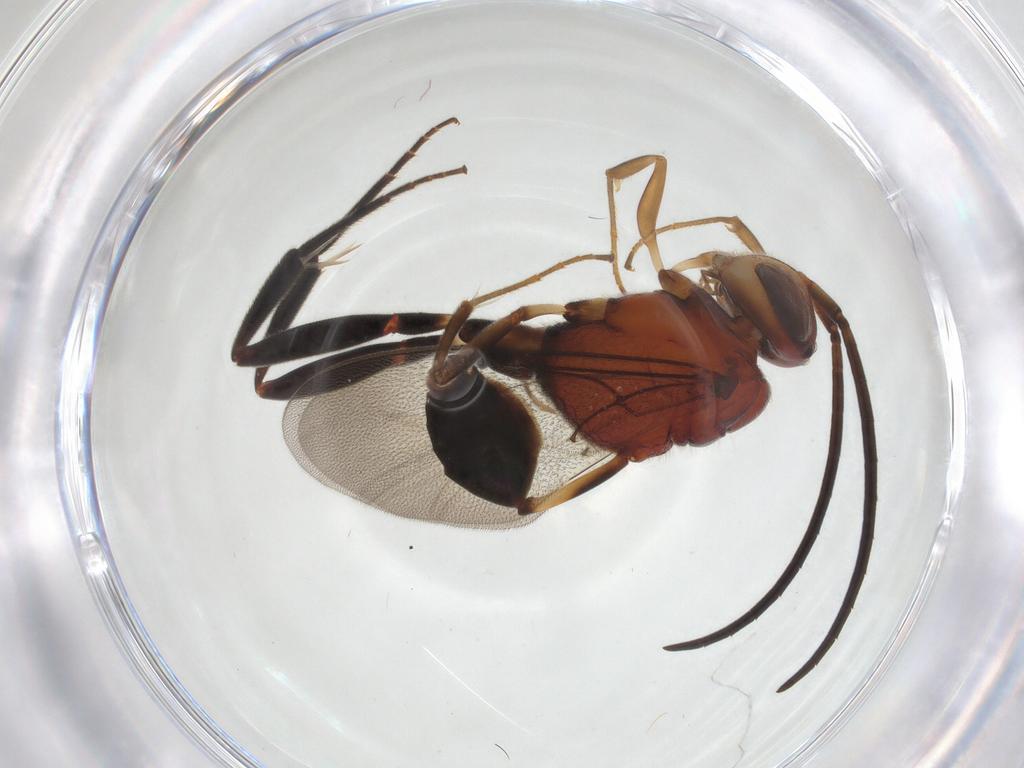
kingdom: Animalia
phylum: Arthropoda
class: Insecta
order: Hymenoptera
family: Evaniidae
